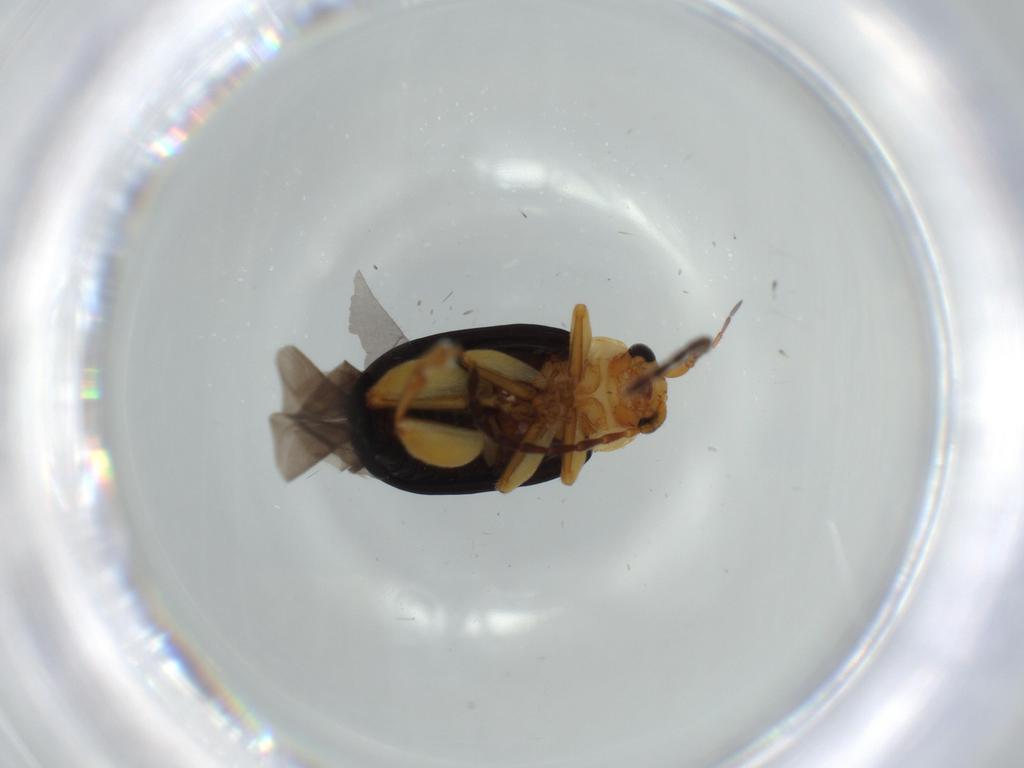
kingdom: Animalia
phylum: Arthropoda
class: Insecta
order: Coleoptera
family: Chrysomelidae
